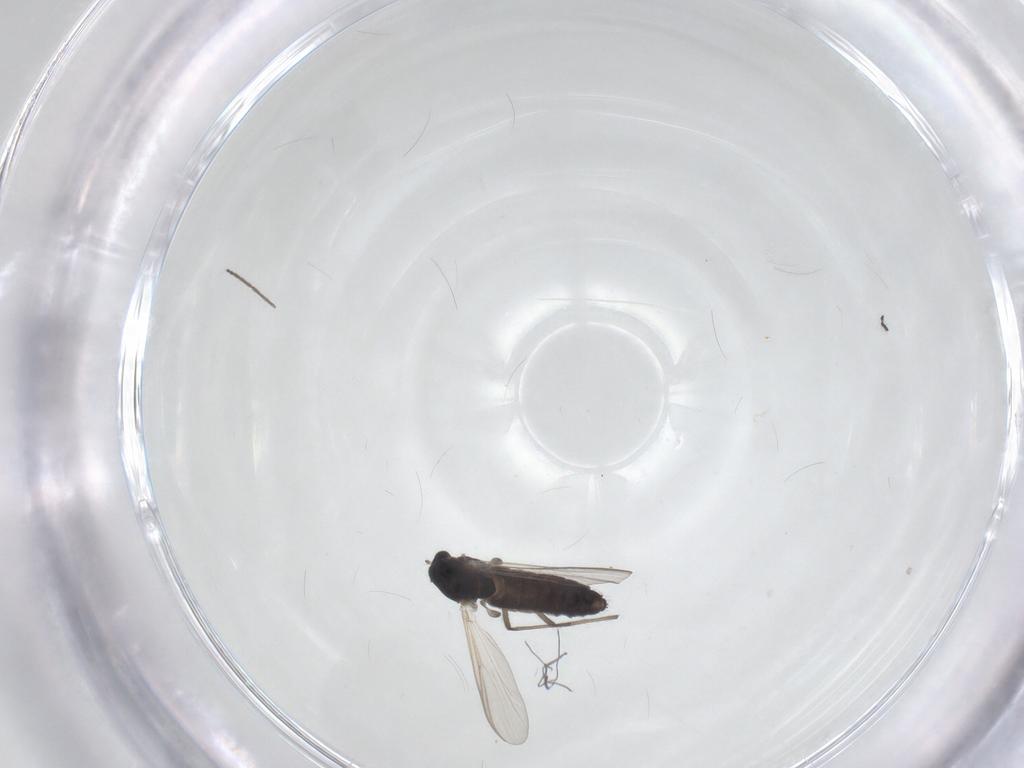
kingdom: Animalia
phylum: Arthropoda
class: Insecta
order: Diptera
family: Chironomidae
